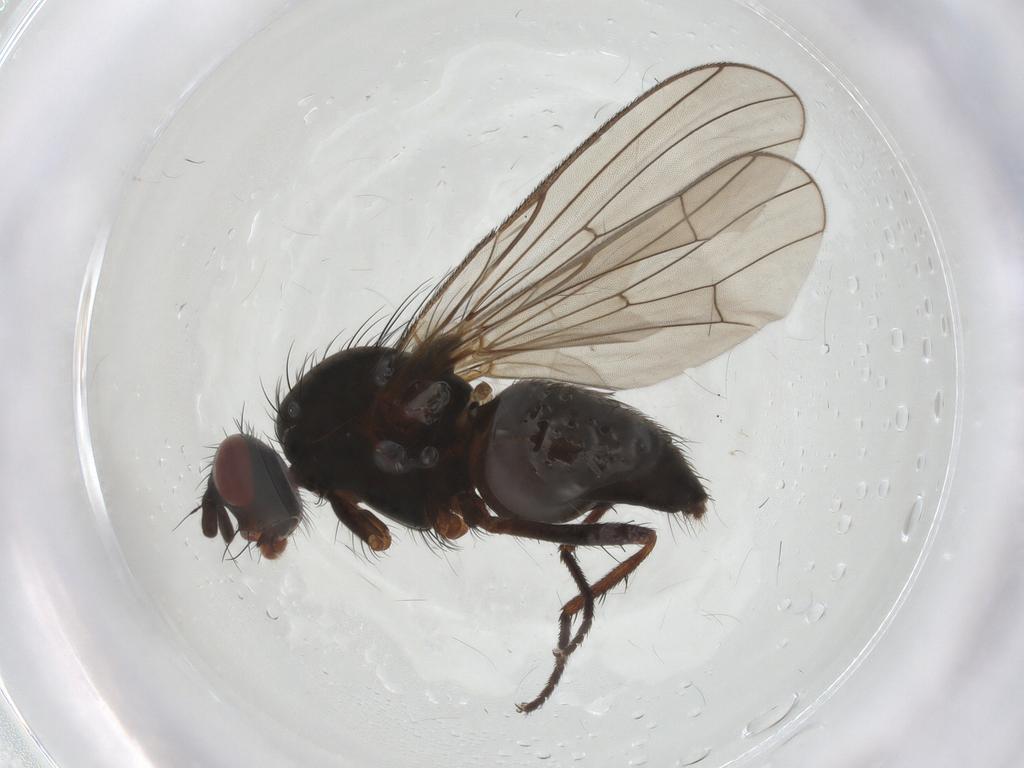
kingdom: Animalia
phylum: Arthropoda
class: Insecta
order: Diptera
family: Anthomyiidae
